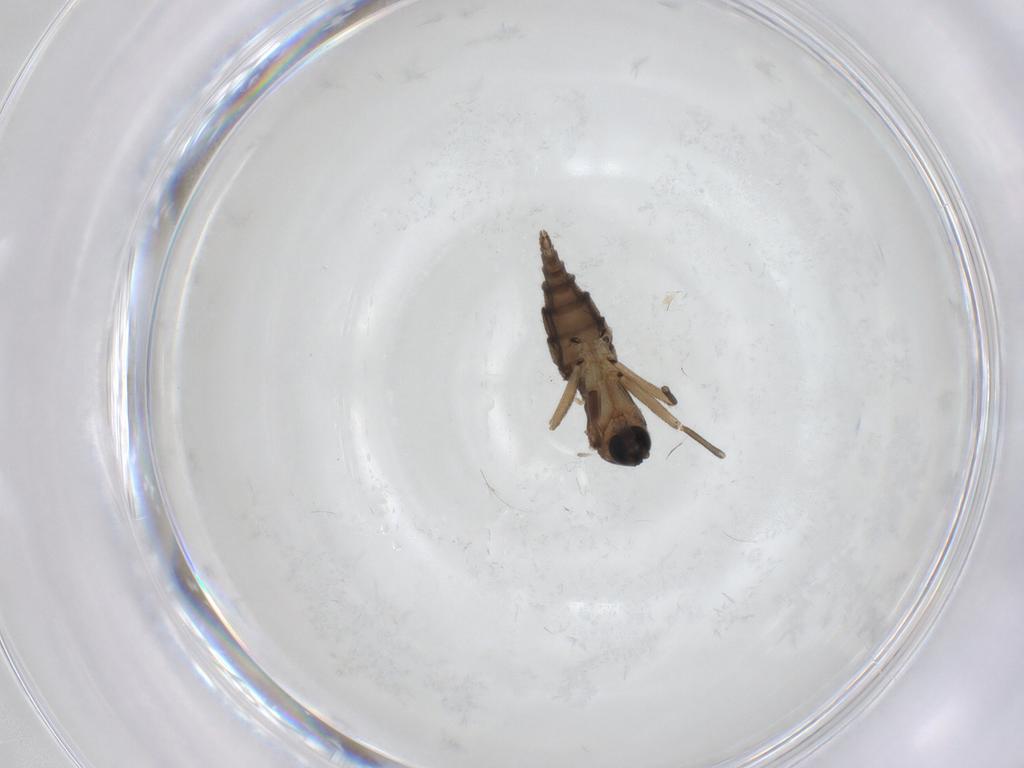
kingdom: Animalia
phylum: Arthropoda
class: Insecta
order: Diptera
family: Sciaridae
